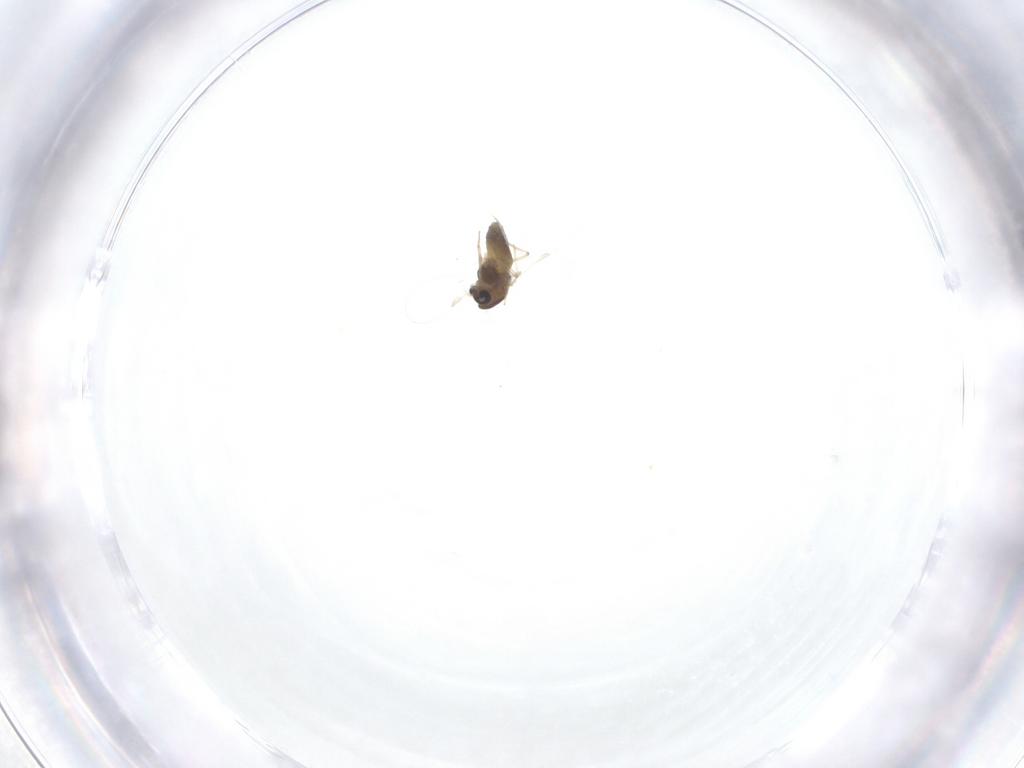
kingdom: Animalia
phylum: Arthropoda
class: Insecta
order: Diptera
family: Chironomidae
